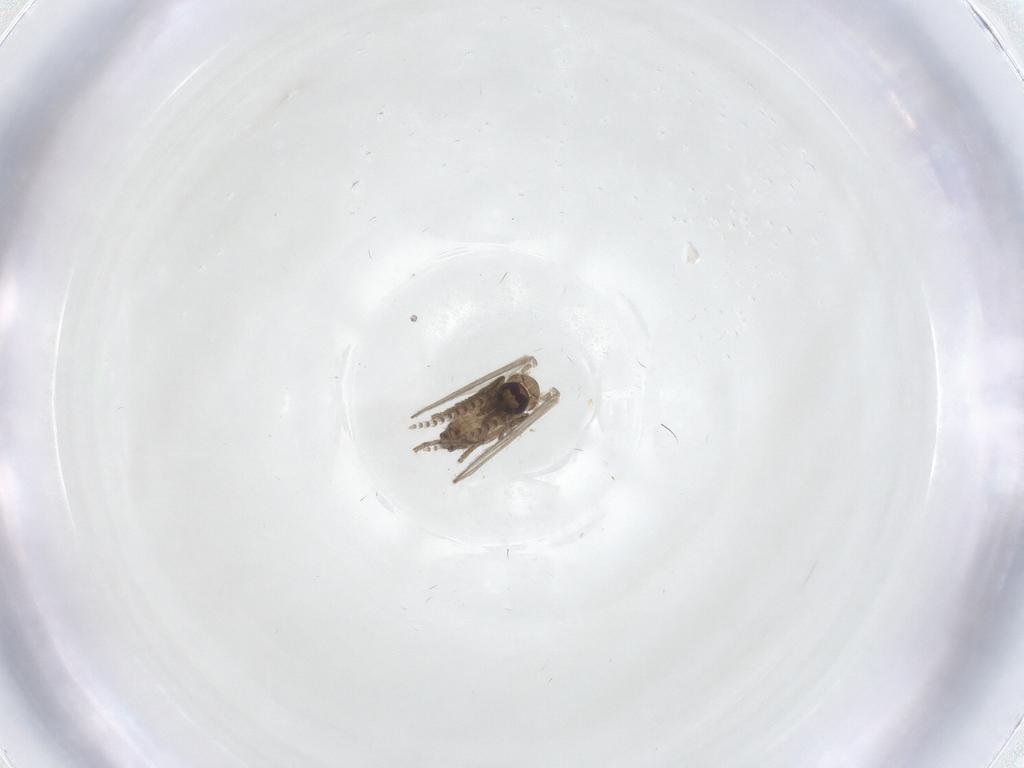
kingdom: Animalia
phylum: Arthropoda
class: Insecta
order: Diptera
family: Psychodidae
